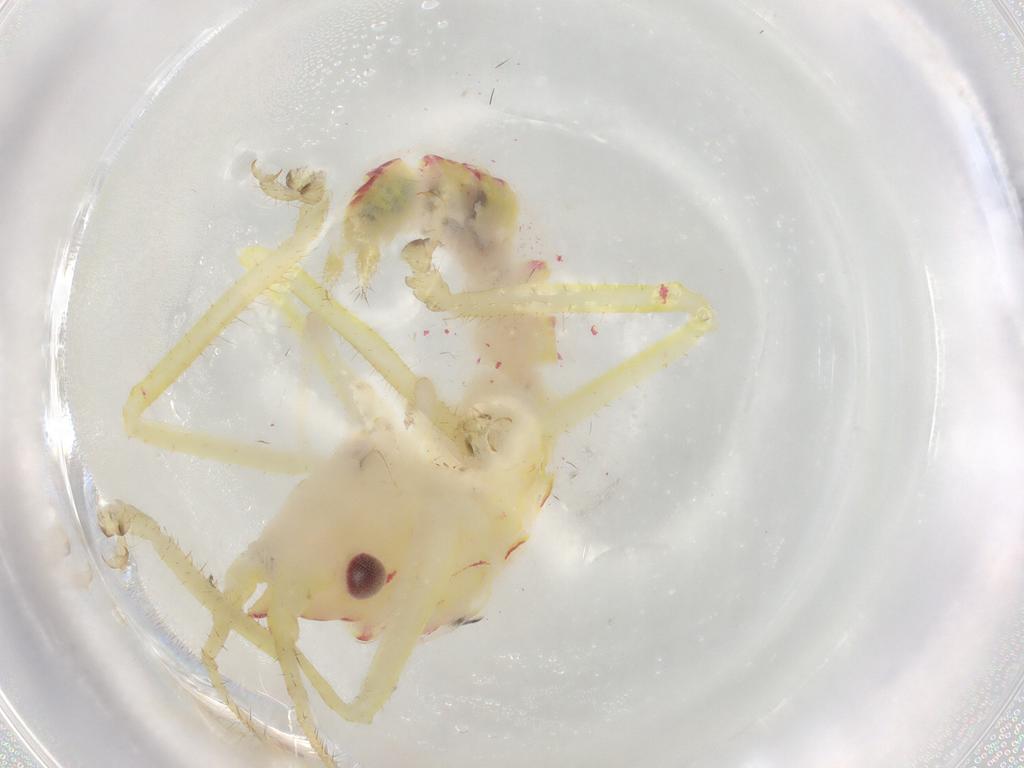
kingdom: Animalia
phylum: Arthropoda
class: Insecta
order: Orthoptera
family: Tettigoniidae
